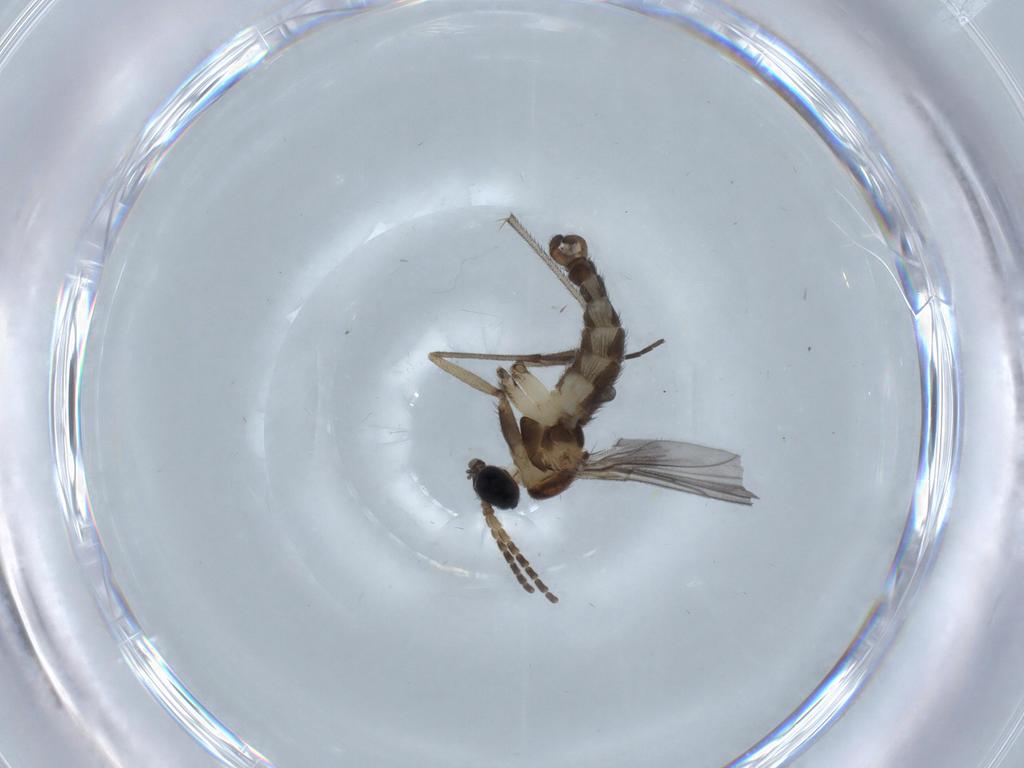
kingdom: Animalia
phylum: Arthropoda
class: Insecta
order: Diptera
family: Sciaridae
